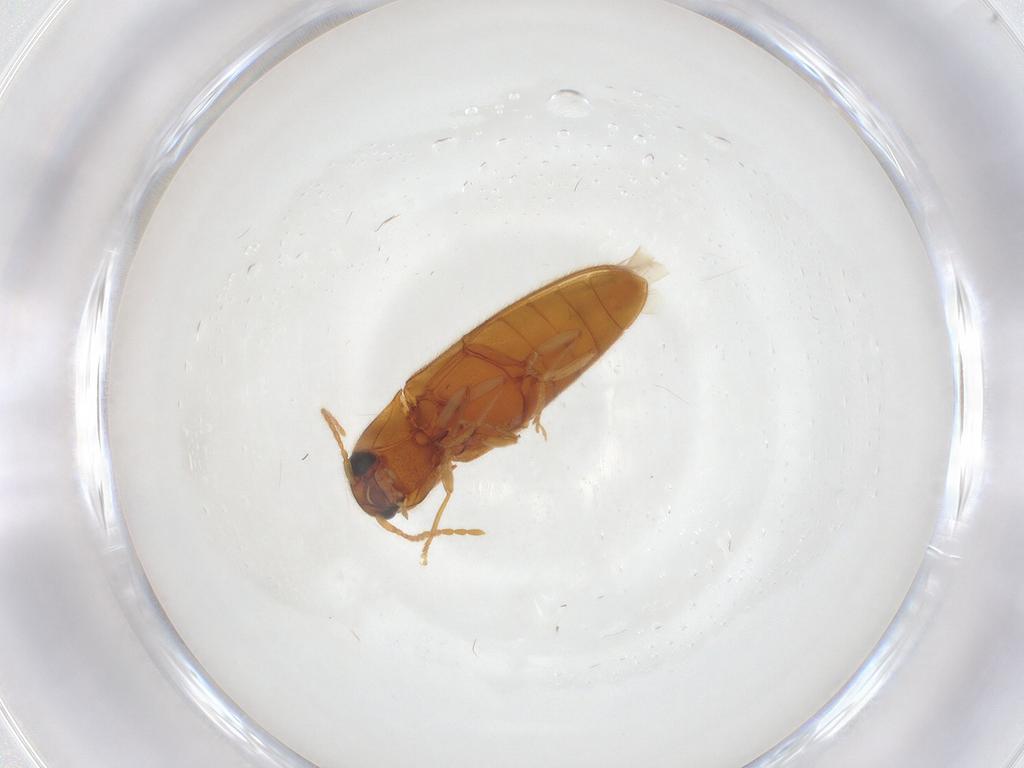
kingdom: Animalia
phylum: Arthropoda
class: Insecta
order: Coleoptera
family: Elateridae
